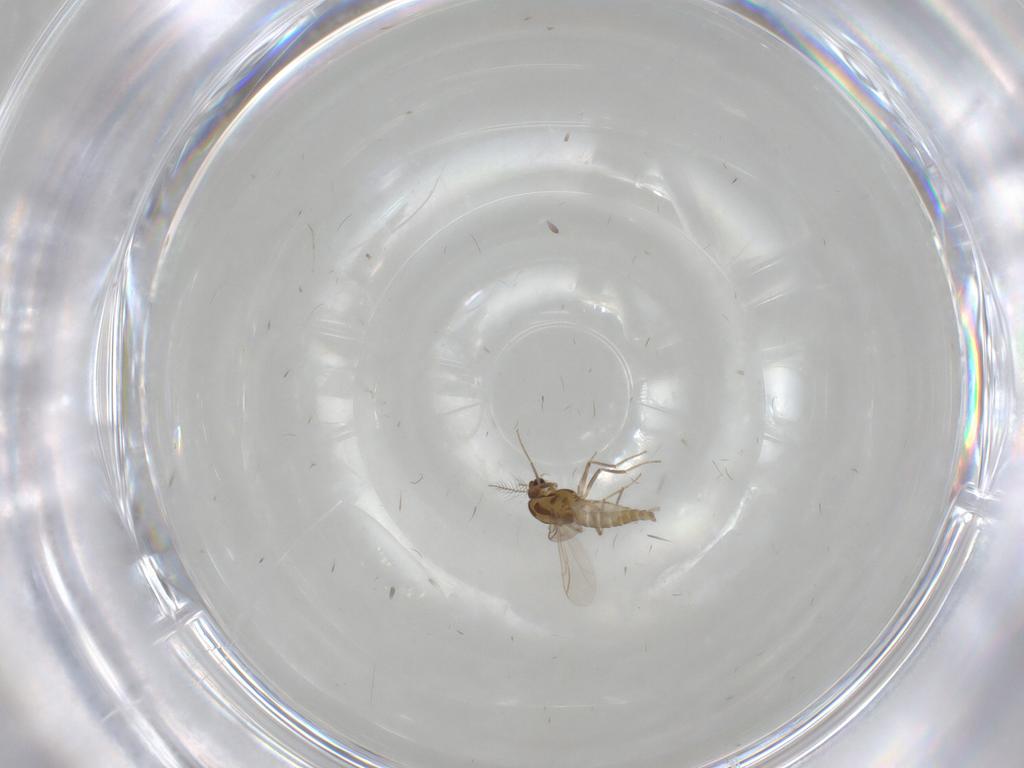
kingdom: Animalia
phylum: Arthropoda
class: Insecta
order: Diptera
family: Chironomidae
